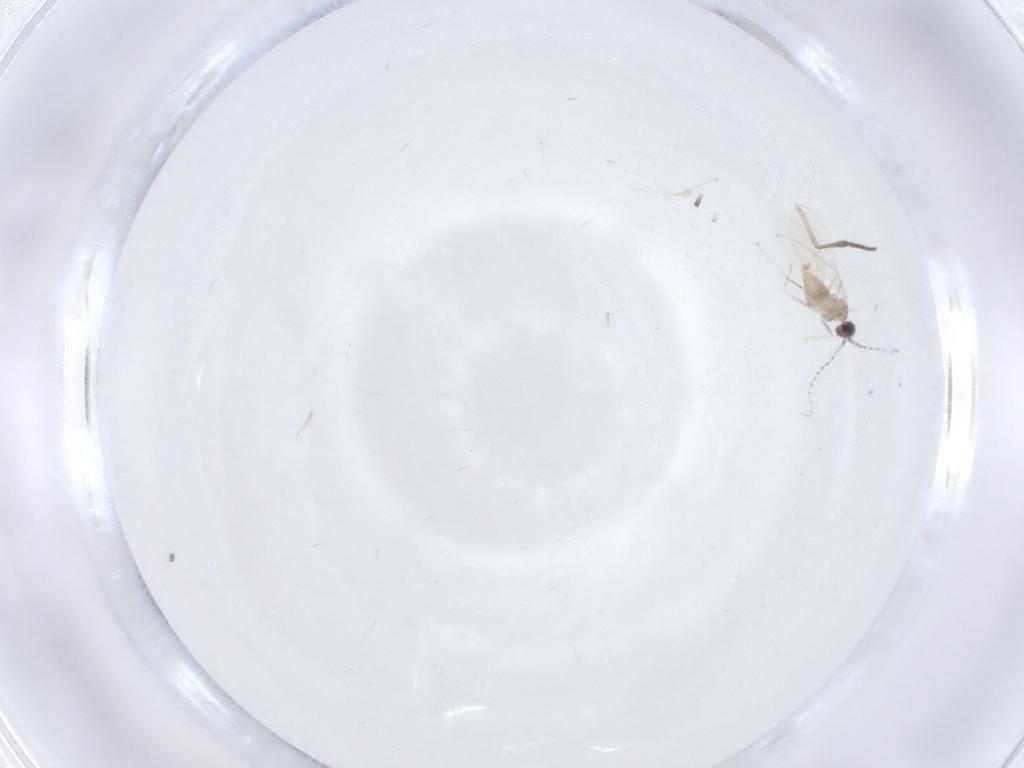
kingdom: Animalia
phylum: Arthropoda
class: Insecta
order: Diptera
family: Cecidomyiidae
